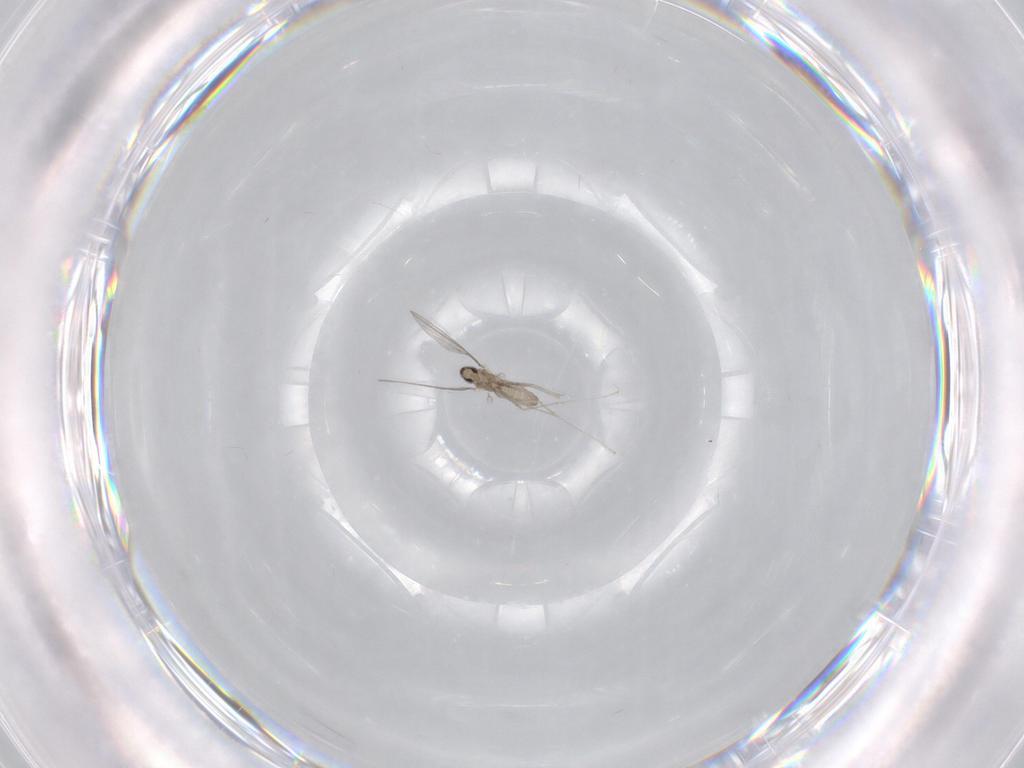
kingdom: Animalia
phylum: Arthropoda
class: Insecta
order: Diptera
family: Cecidomyiidae
